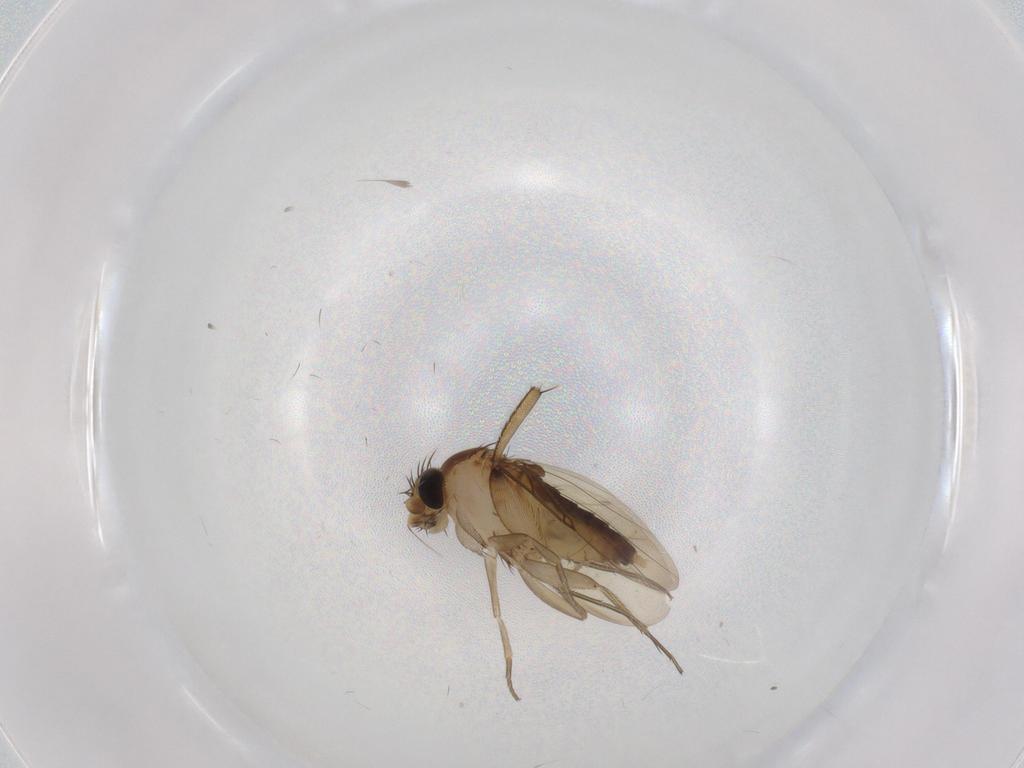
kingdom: Animalia
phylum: Arthropoda
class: Insecta
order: Diptera
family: Phoridae
